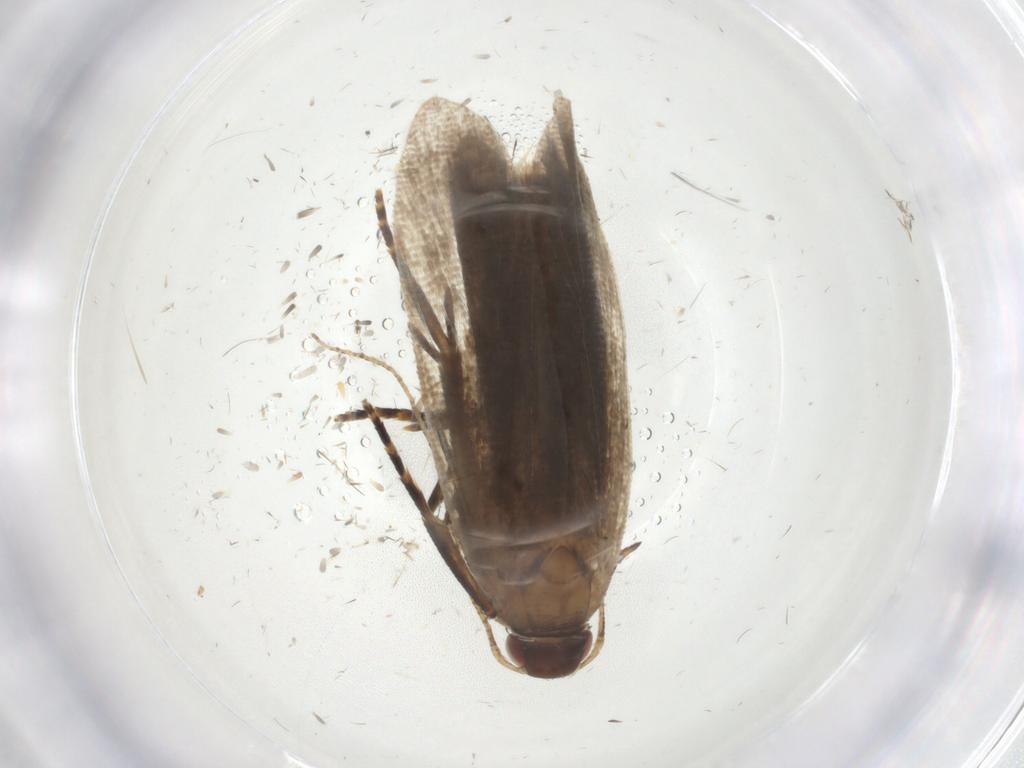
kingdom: Animalia
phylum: Arthropoda
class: Insecta
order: Lepidoptera
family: Gelechiidae
